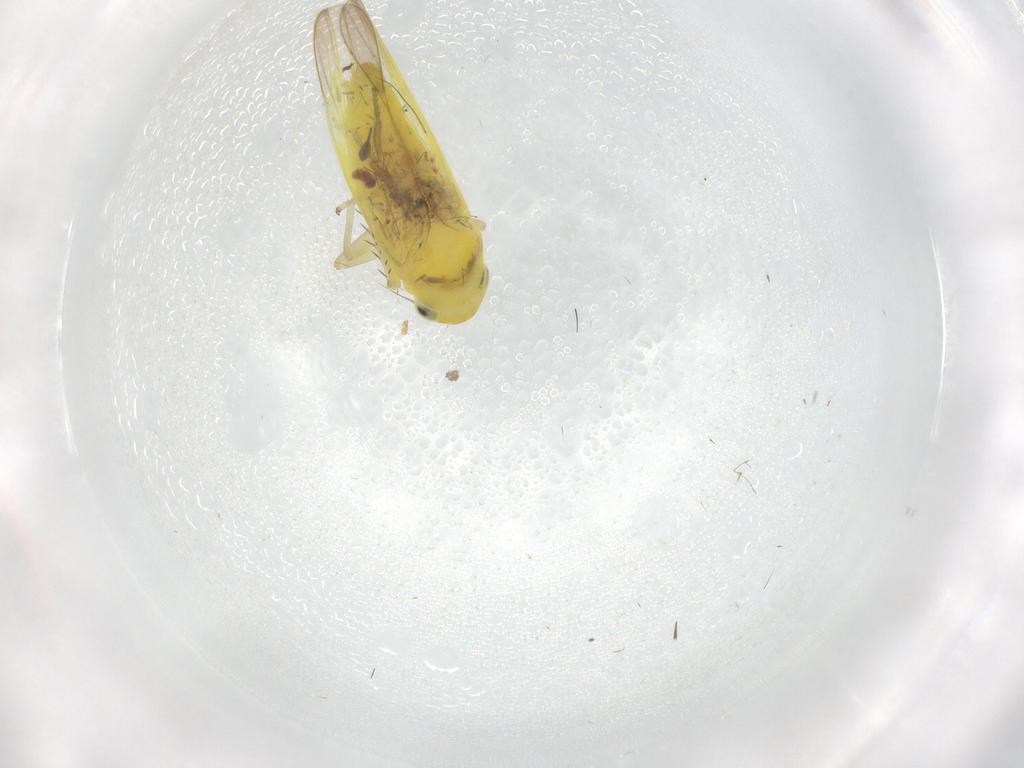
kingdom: Animalia
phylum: Arthropoda
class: Insecta
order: Hemiptera
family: Cicadellidae
